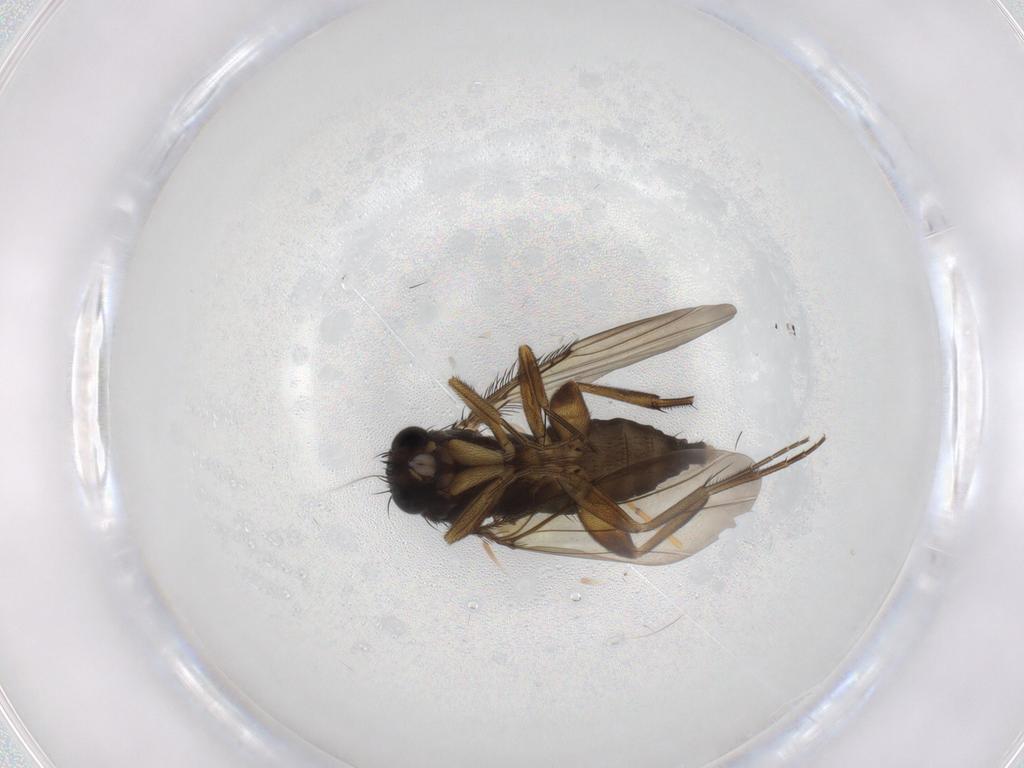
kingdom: Animalia
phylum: Arthropoda
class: Insecta
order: Diptera
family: Phoridae
